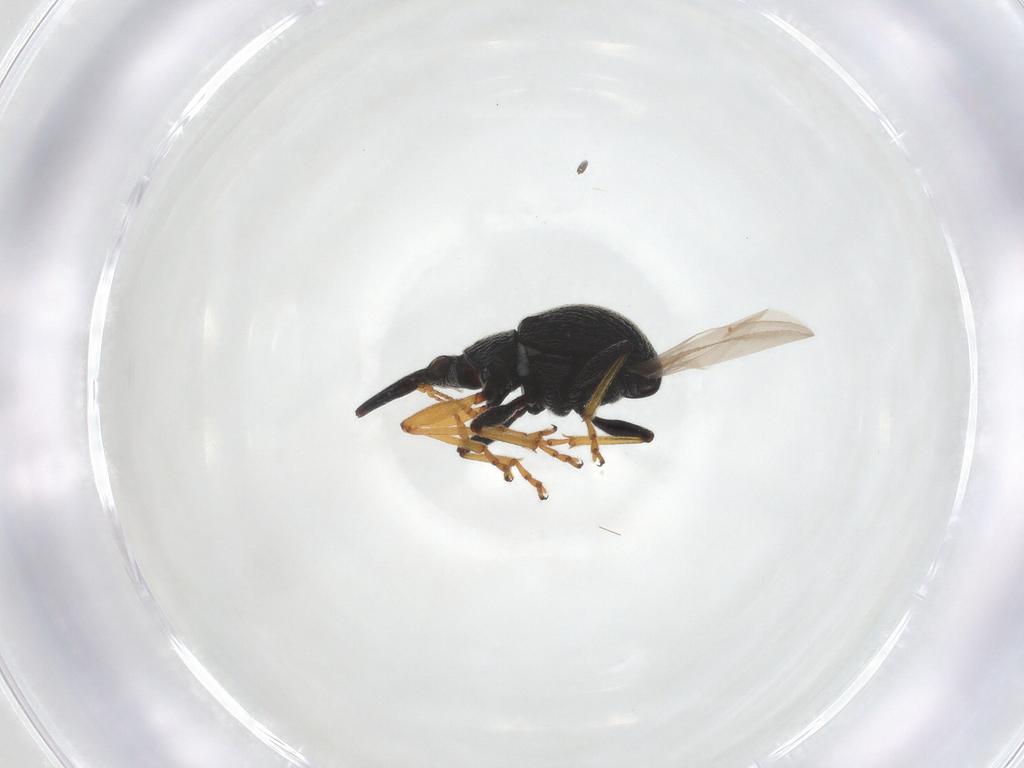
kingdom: Animalia
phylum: Arthropoda
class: Insecta
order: Coleoptera
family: Brentidae
